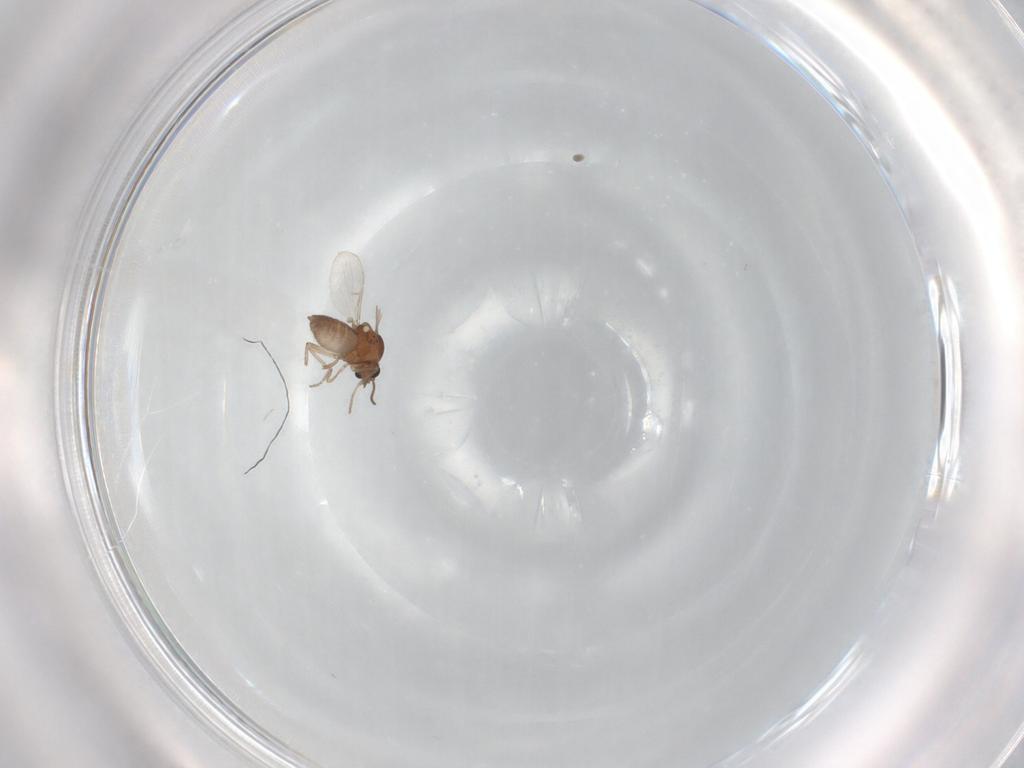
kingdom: Animalia
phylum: Arthropoda
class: Insecta
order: Diptera
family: Ceratopogonidae
